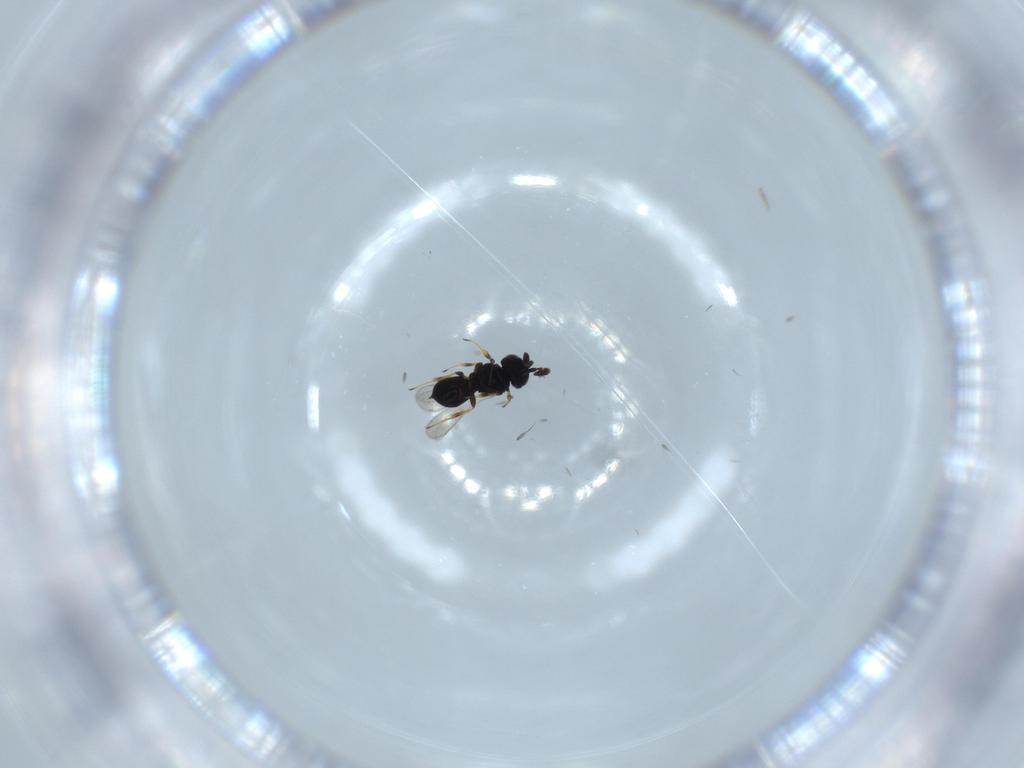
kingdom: Animalia
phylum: Arthropoda
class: Insecta
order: Hymenoptera
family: Scelionidae
